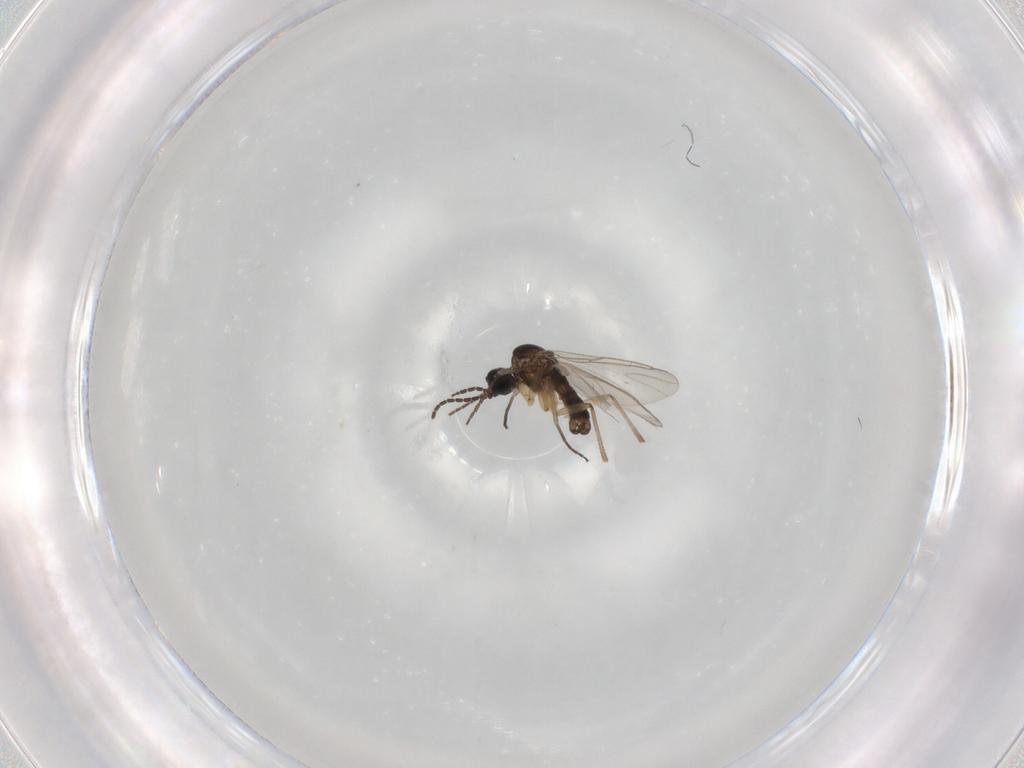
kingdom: Animalia
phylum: Arthropoda
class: Insecta
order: Diptera
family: Sciaridae
